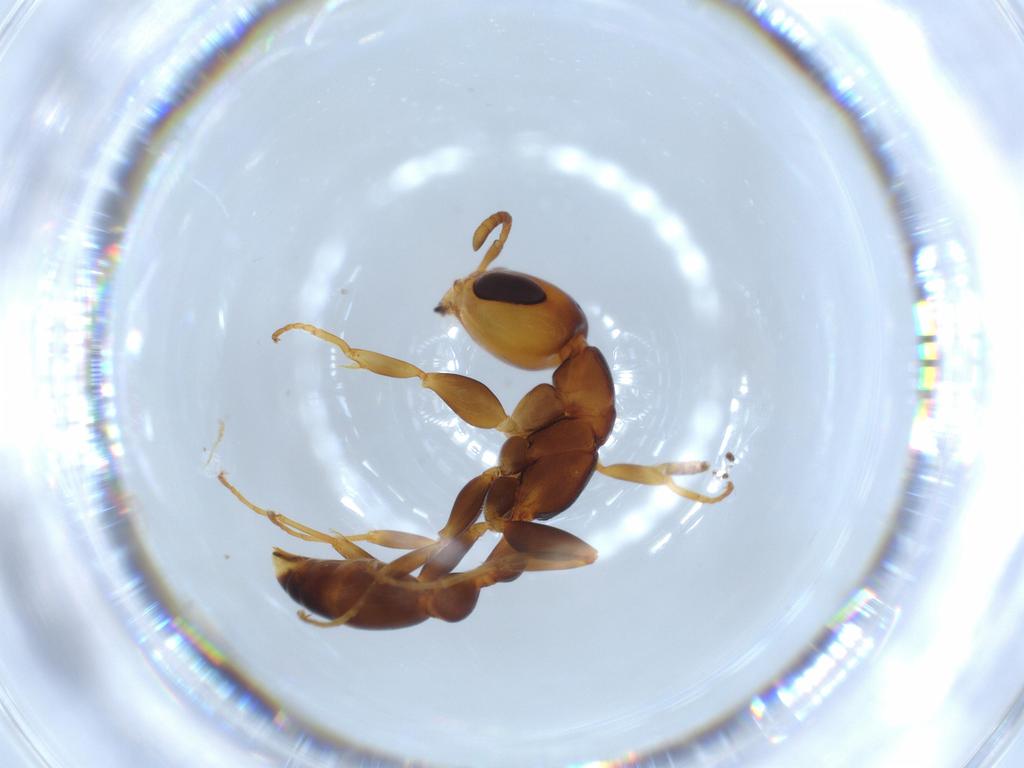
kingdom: Animalia
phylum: Arthropoda
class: Insecta
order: Hymenoptera
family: Formicidae
